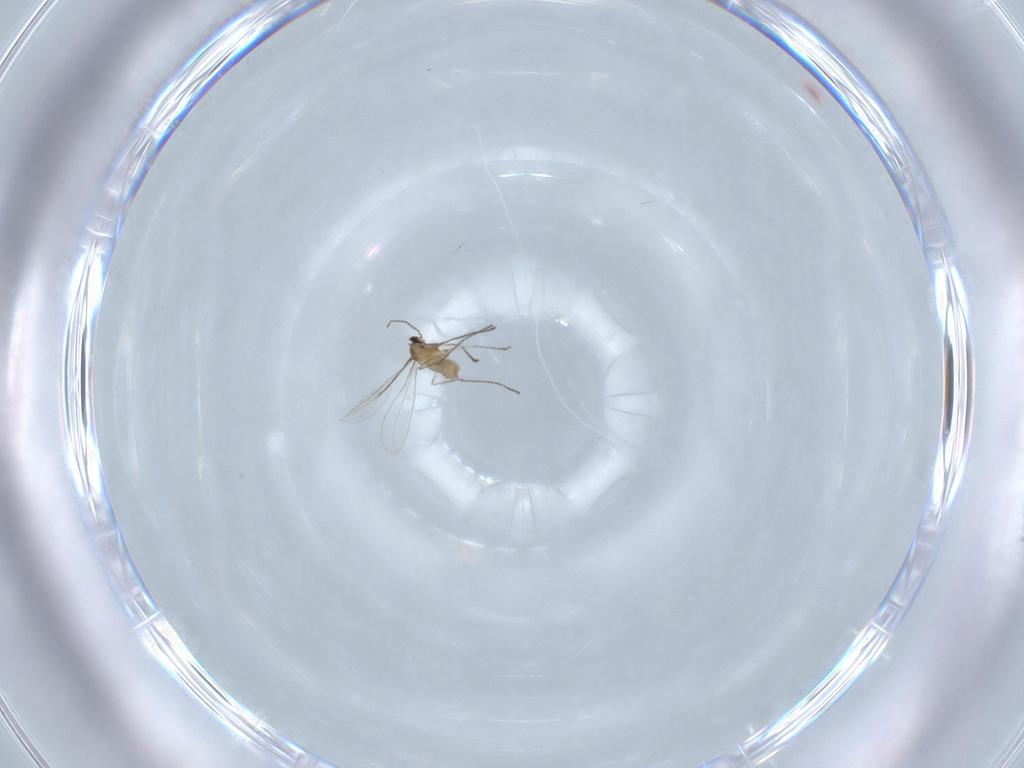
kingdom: Animalia
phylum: Arthropoda
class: Insecta
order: Diptera
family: Cecidomyiidae
